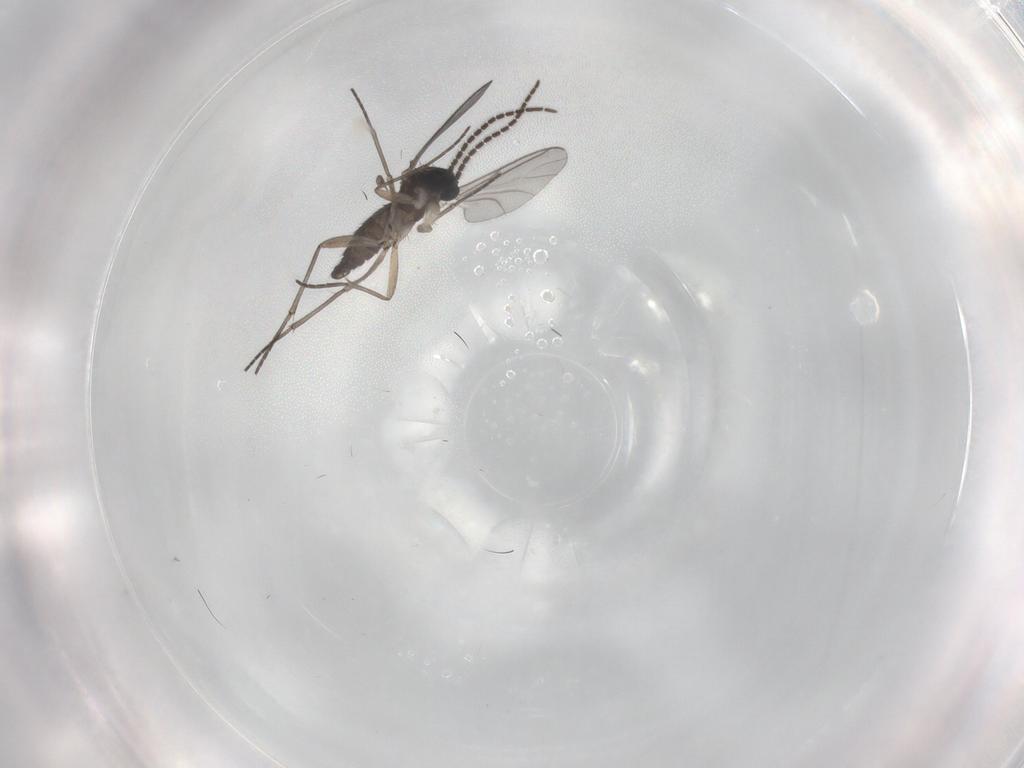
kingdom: Animalia
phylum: Arthropoda
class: Insecta
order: Diptera
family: Sciaridae
